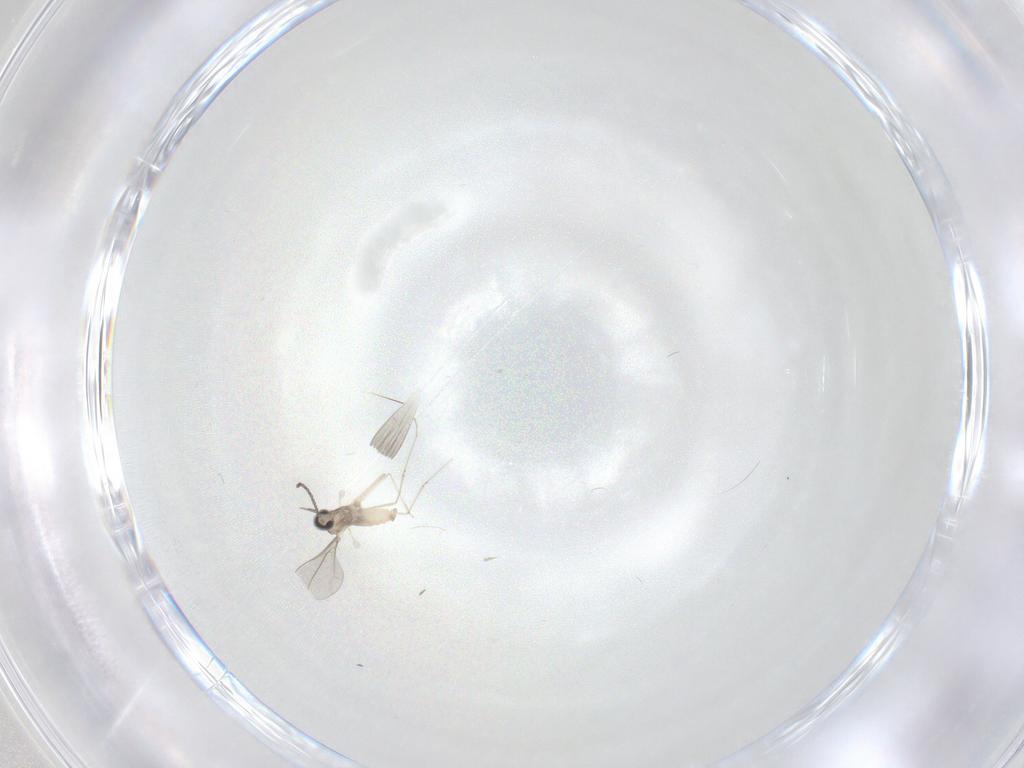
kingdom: Animalia
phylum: Arthropoda
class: Insecta
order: Diptera
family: Cecidomyiidae
